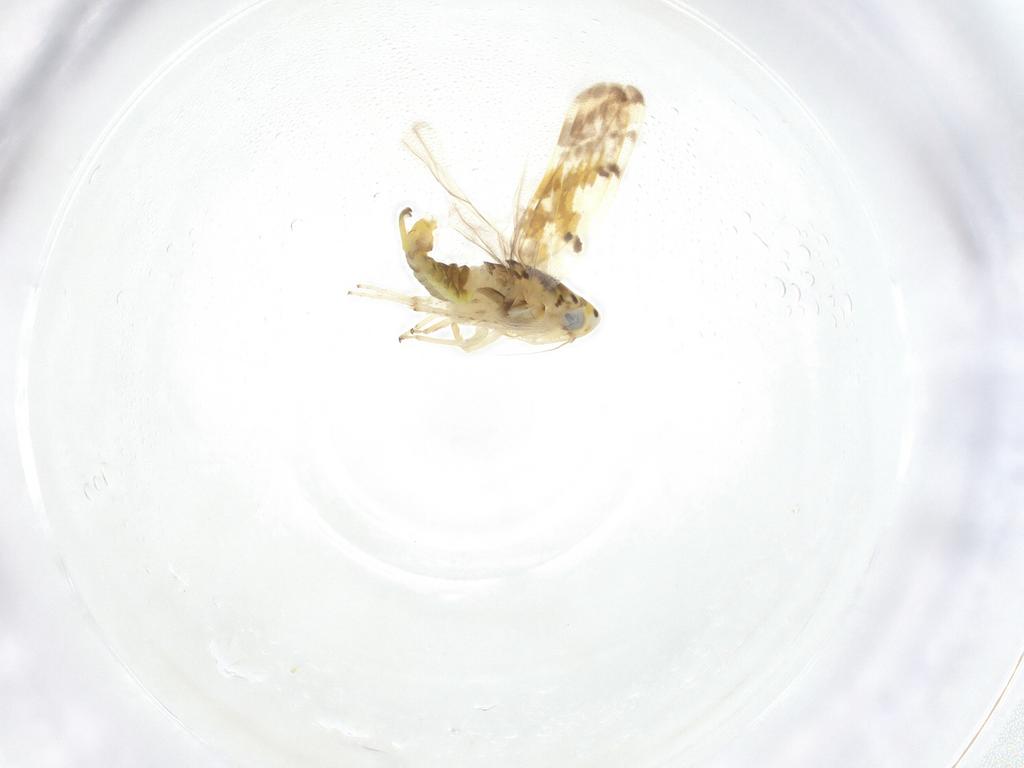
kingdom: Animalia
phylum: Arthropoda
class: Insecta
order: Hemiptera
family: Cicadellidae
